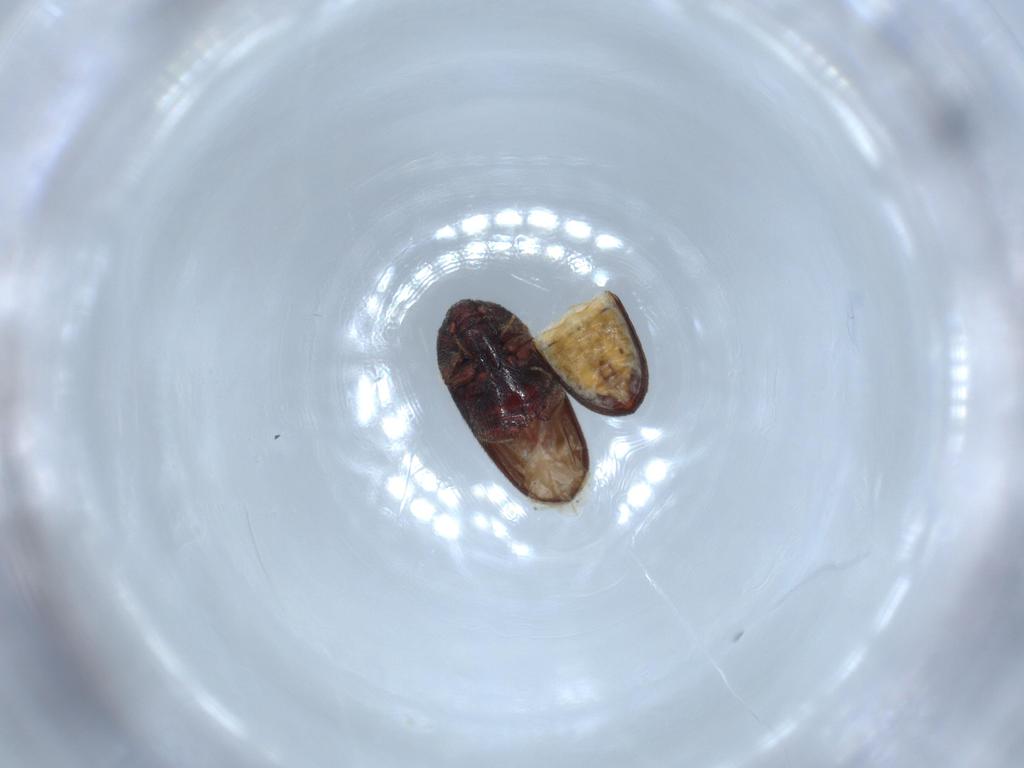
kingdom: Animalia
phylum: Arthropoda
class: Insecta
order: Coleoptera
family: Throscidae
